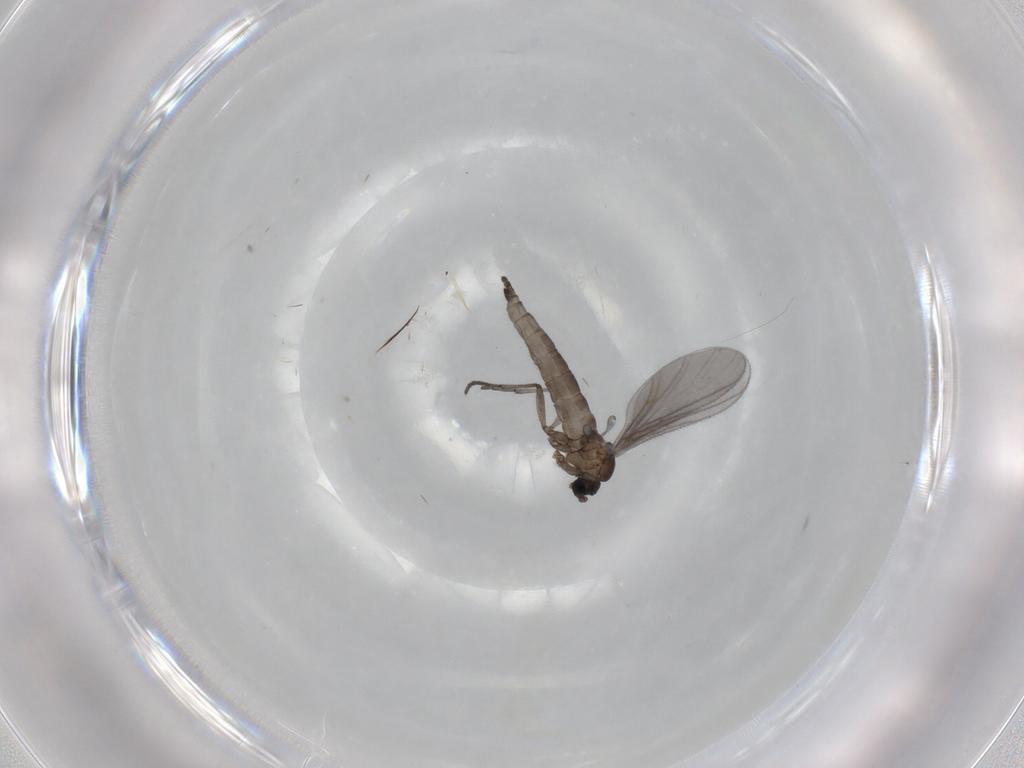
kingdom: Animalia
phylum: Arthropoda
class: Insecta
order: Diptera
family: Sciaridae
